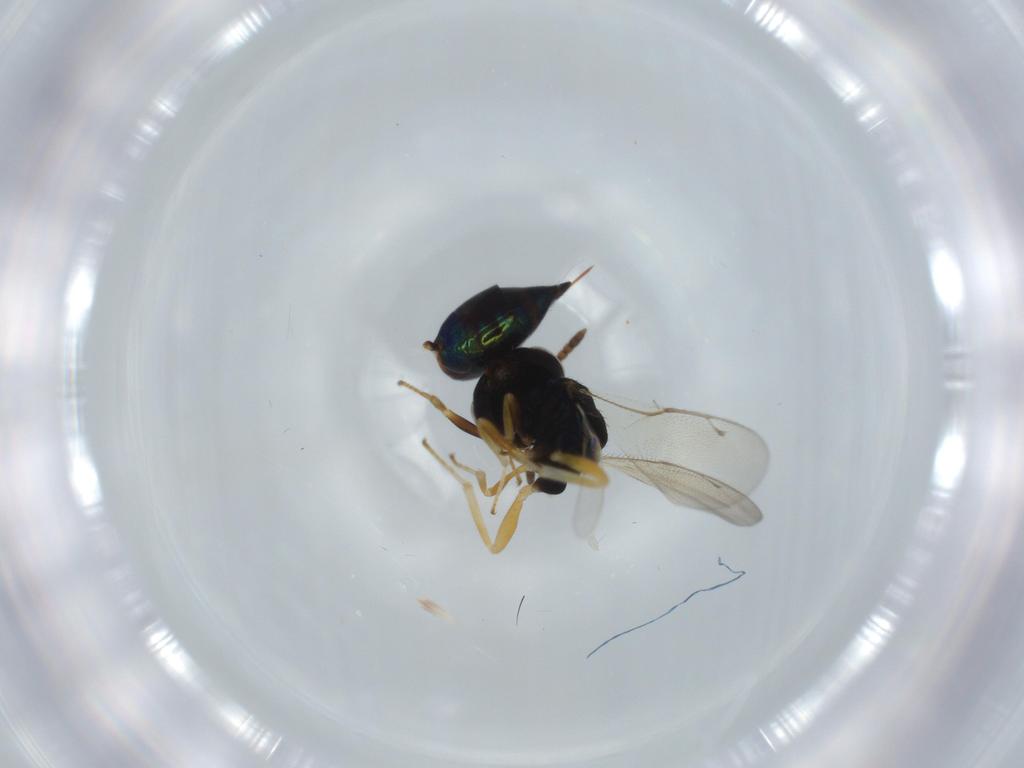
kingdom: Animalia
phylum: Arthropoda
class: Insecta
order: Hymenoptera
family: Pteromalidae
